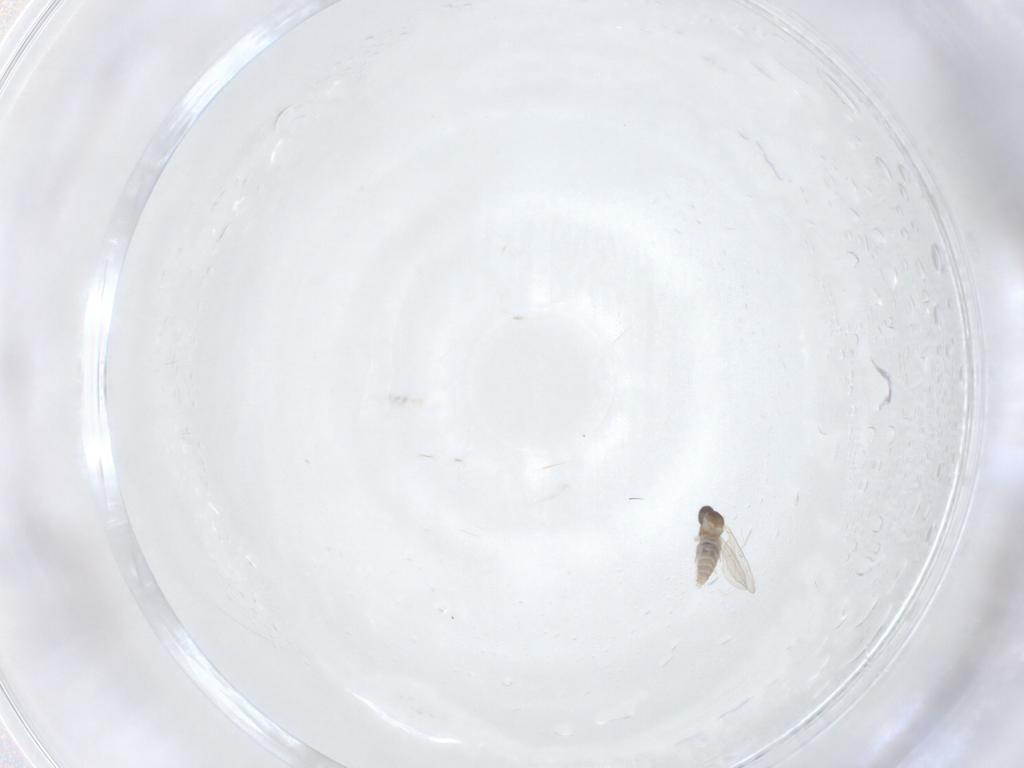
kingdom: Animalia
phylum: Arthropoda
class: Insecta
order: Diptera
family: Cecidomyiidae
